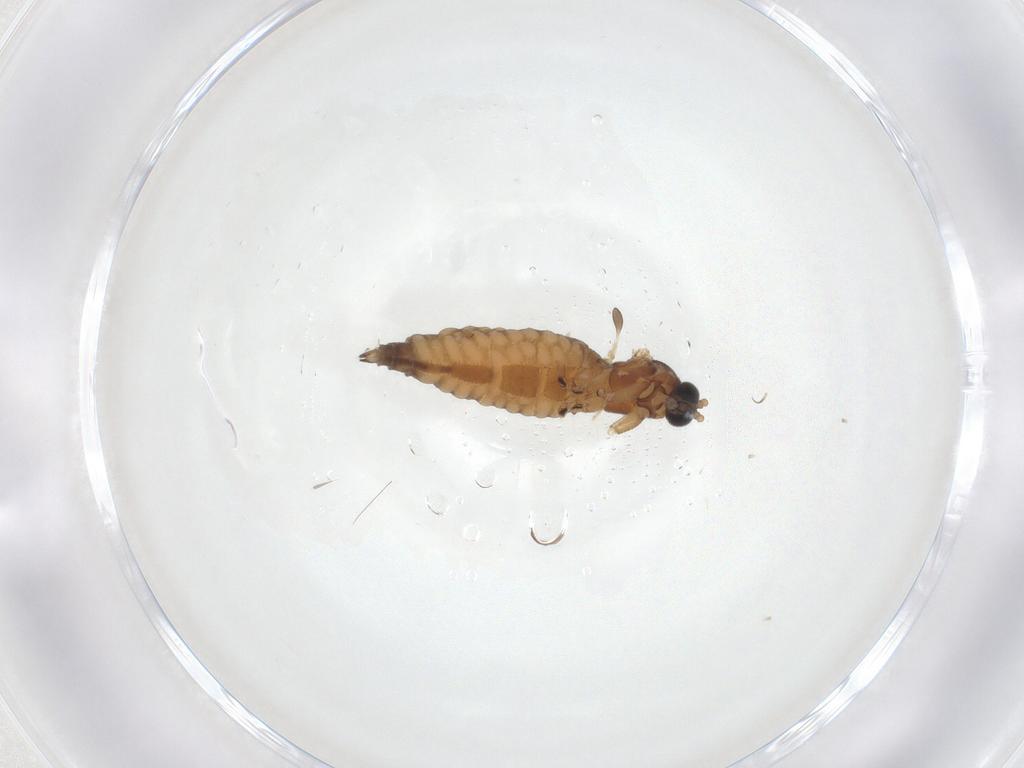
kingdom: Animalia
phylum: Arthropoda
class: Insecta
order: Diptera
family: Sciaridae
